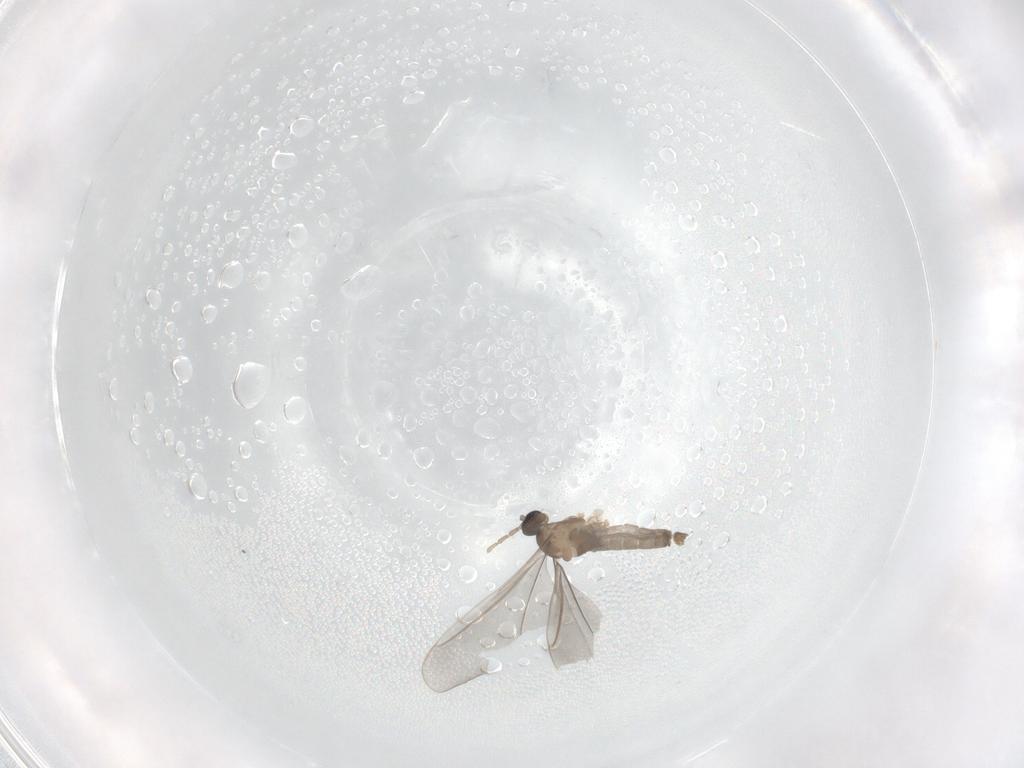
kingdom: Animalia
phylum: Arthropoda
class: Insecta
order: Diptera
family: Cecidomyiidae
